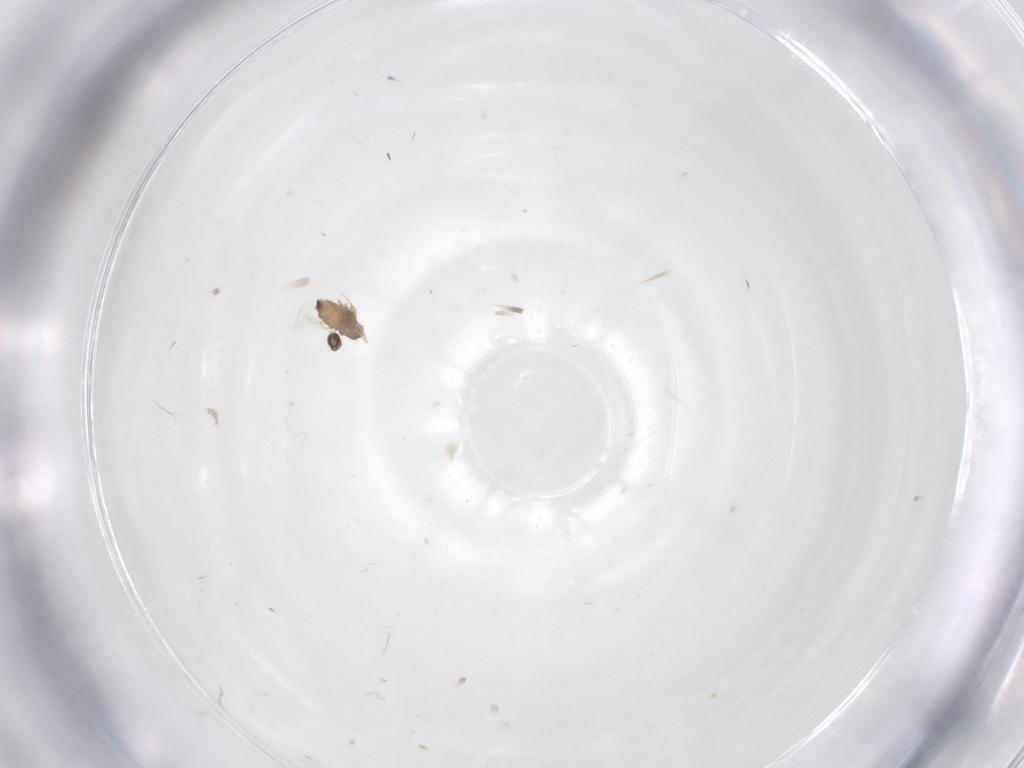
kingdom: Animalia
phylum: Arthropoda
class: Insecta
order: Diptera
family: Cecidomyiidae
